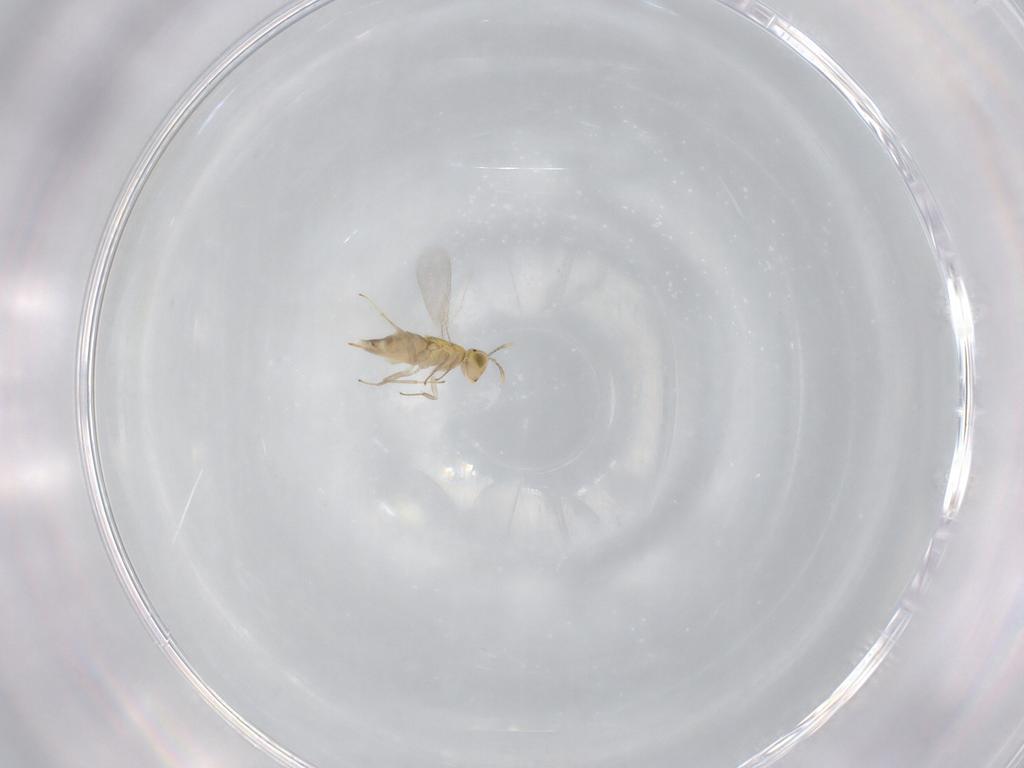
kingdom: Animalia
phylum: Arthropoda
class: Insecta
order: Hymenoptera
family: Aphelinidae
